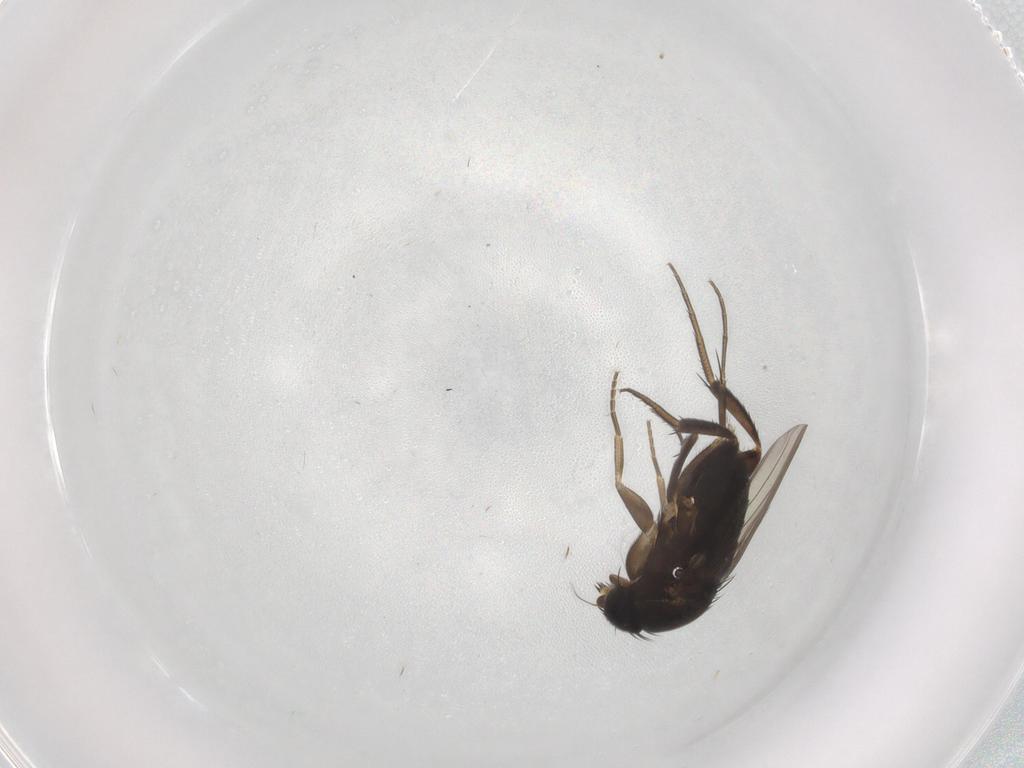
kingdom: Animalia
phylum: Arthropoda
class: Insecta
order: Diptera
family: Phoridae
